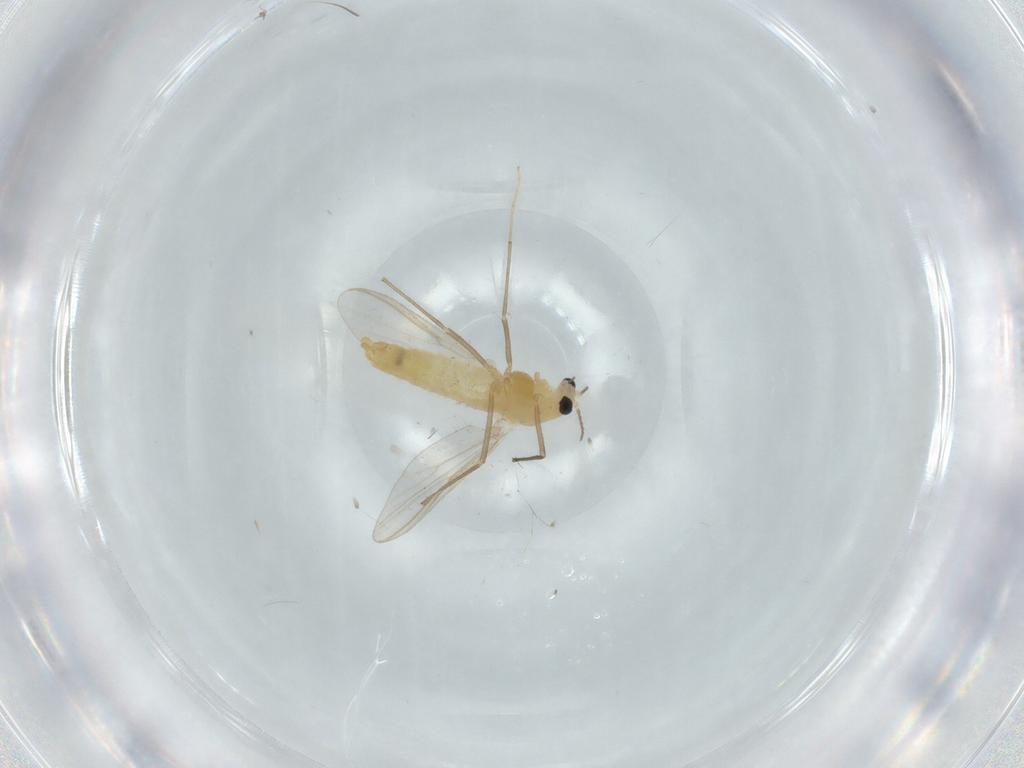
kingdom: Animalia
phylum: Arthropoda
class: Insecta
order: Diptera
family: Chironomidae
